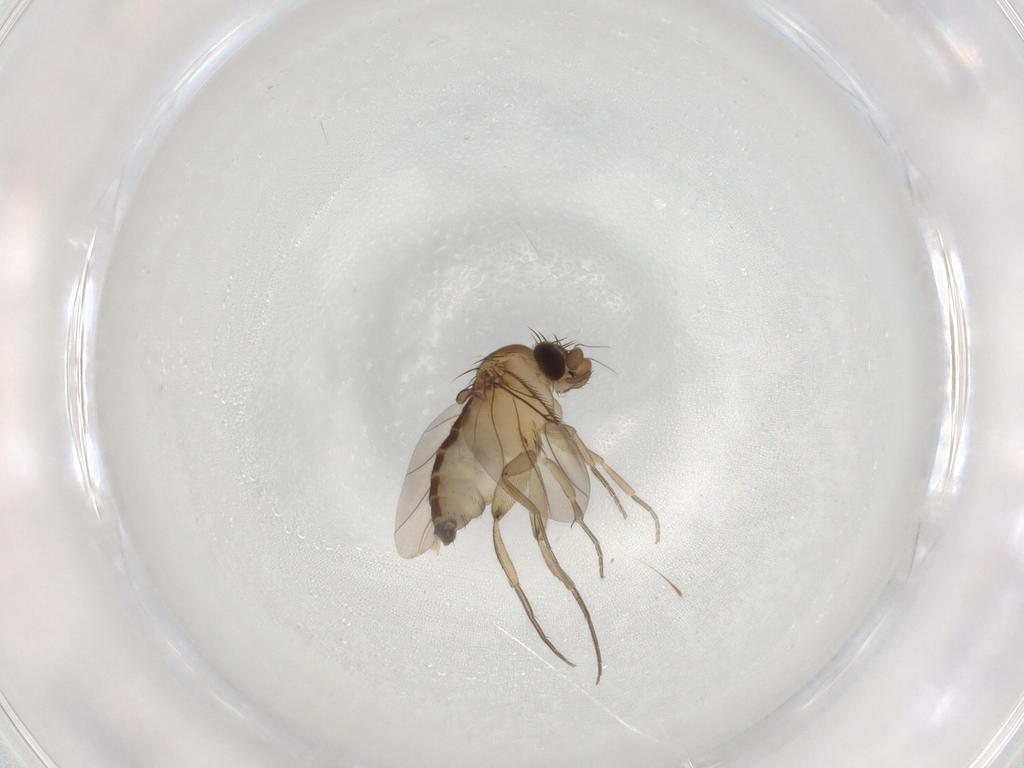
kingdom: Animalia
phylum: Arthropoda
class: Insecta
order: Diptera
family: Phoridae
